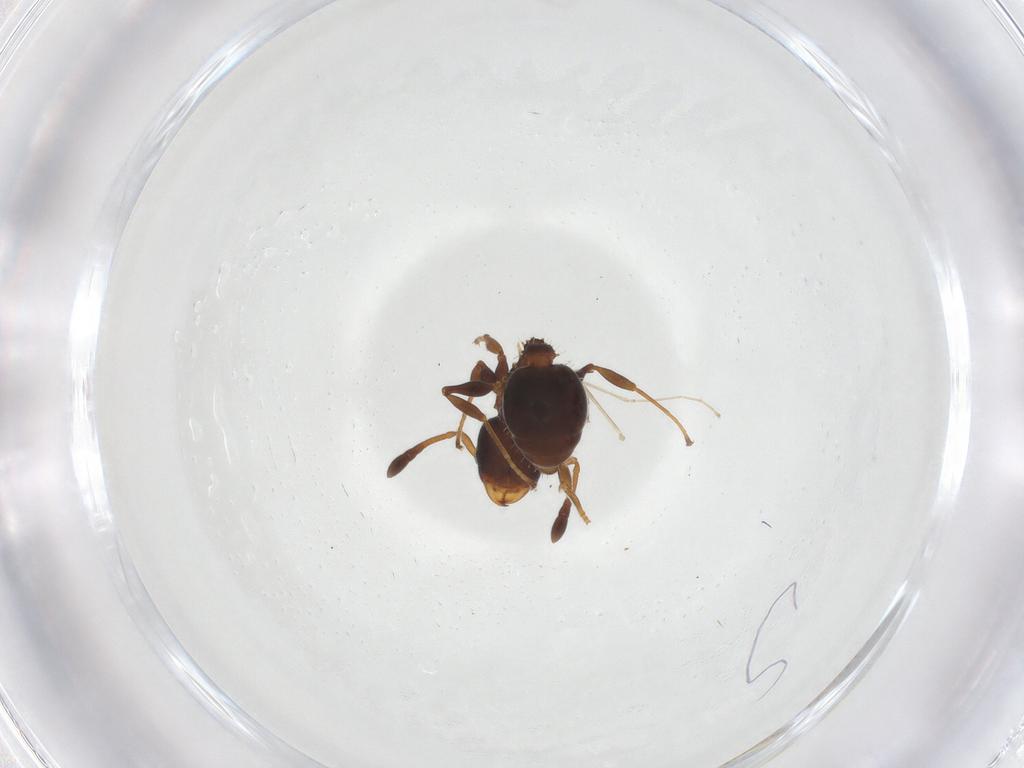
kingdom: Animalia
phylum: Arthropoda
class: Insecta
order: Hymenoptera
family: Formicidae
